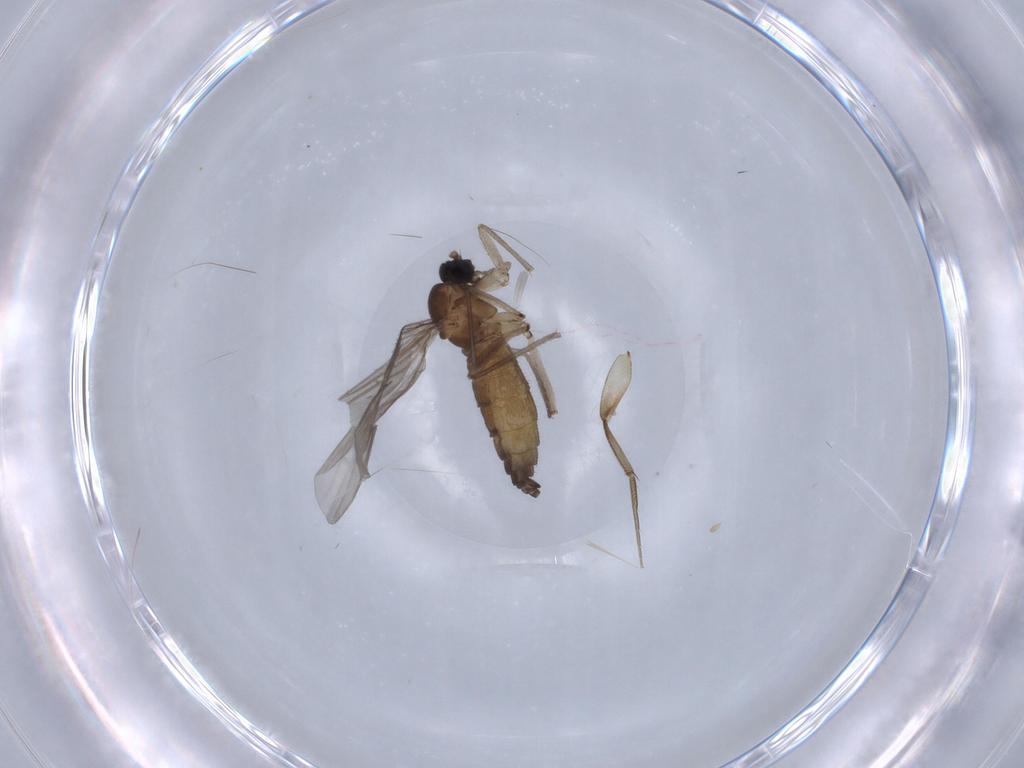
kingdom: Animalia
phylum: Arthropoda
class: Insecta
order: Diptera
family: Sciaridae
